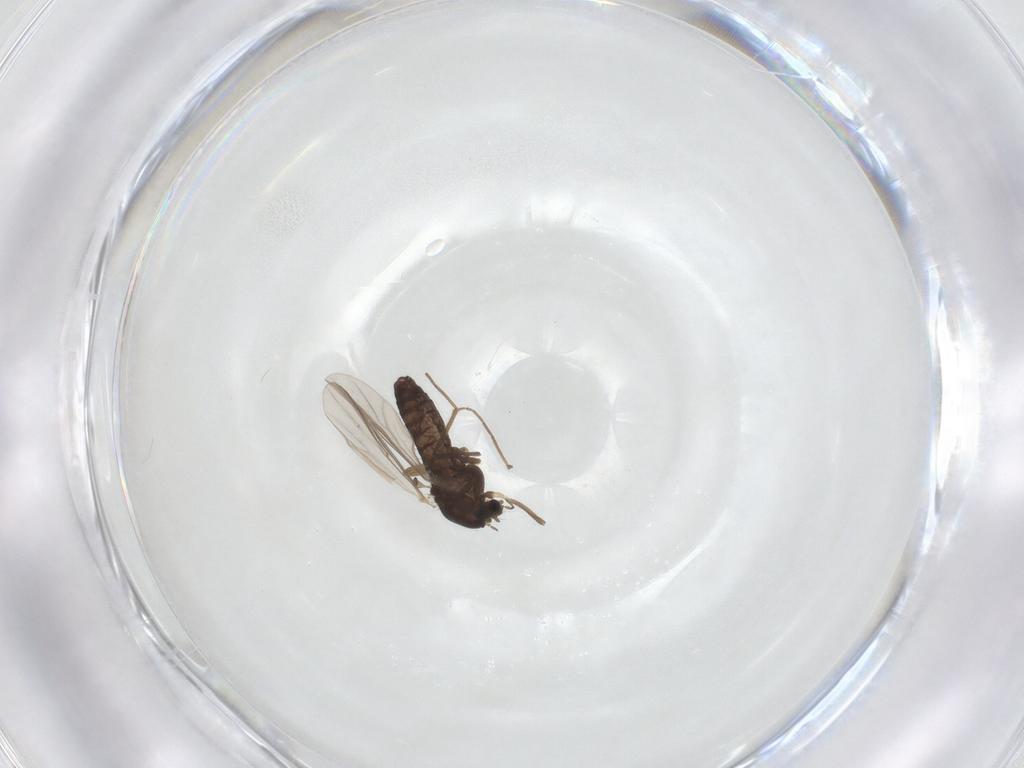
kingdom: Animalia
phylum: Arthropoda
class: Insecta
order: Diptera
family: Chironomidae
